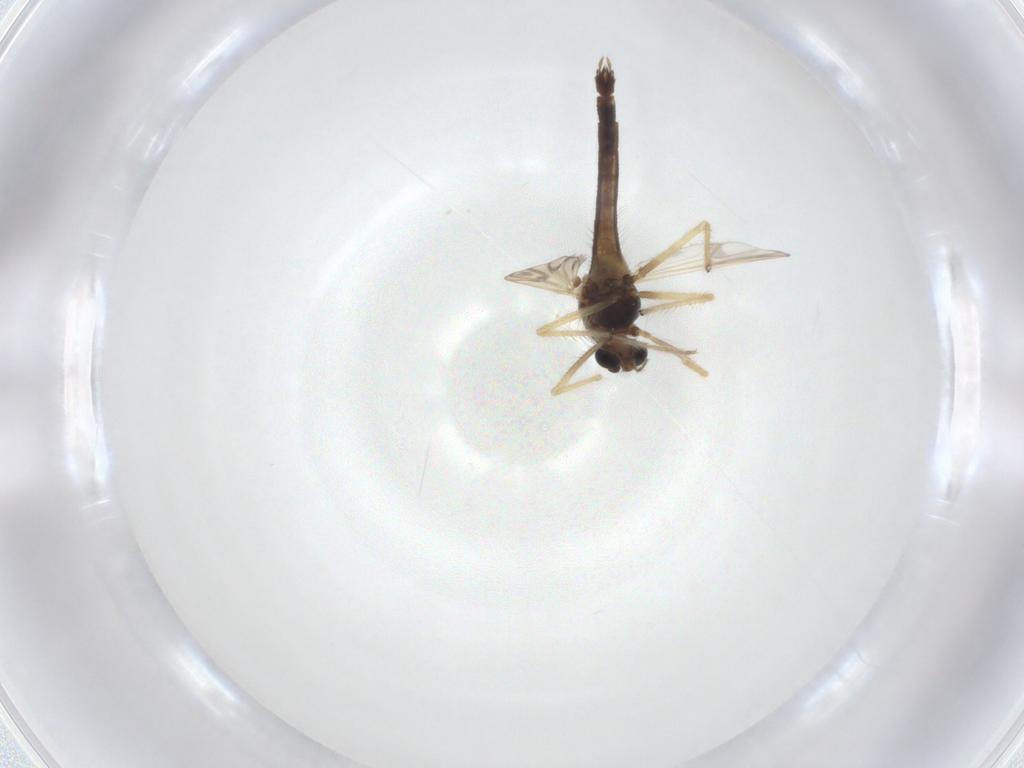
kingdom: Animalia
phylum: Arthropoda
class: Insecta
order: Diptera
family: Chironomidae
